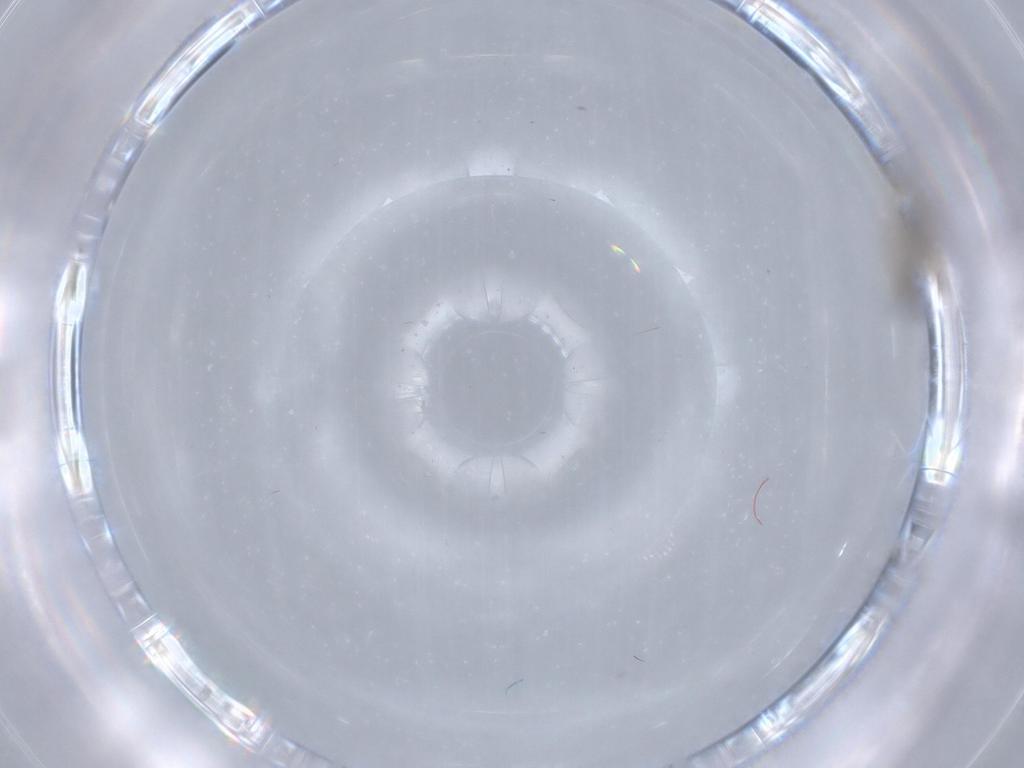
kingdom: Animalia
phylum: Arthropoda
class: Insecta
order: Diptera
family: Cecidomyiidae
